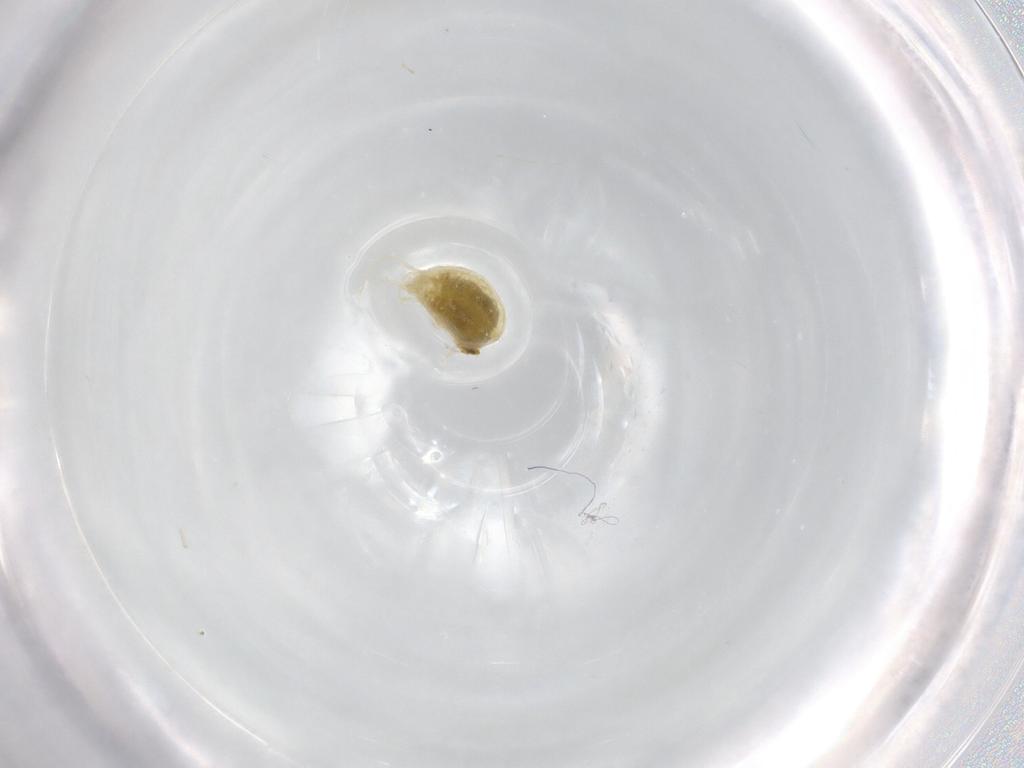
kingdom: Animalia
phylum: Arthropoda
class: Arachnida
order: Trombidiformes
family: Tetranychidae
